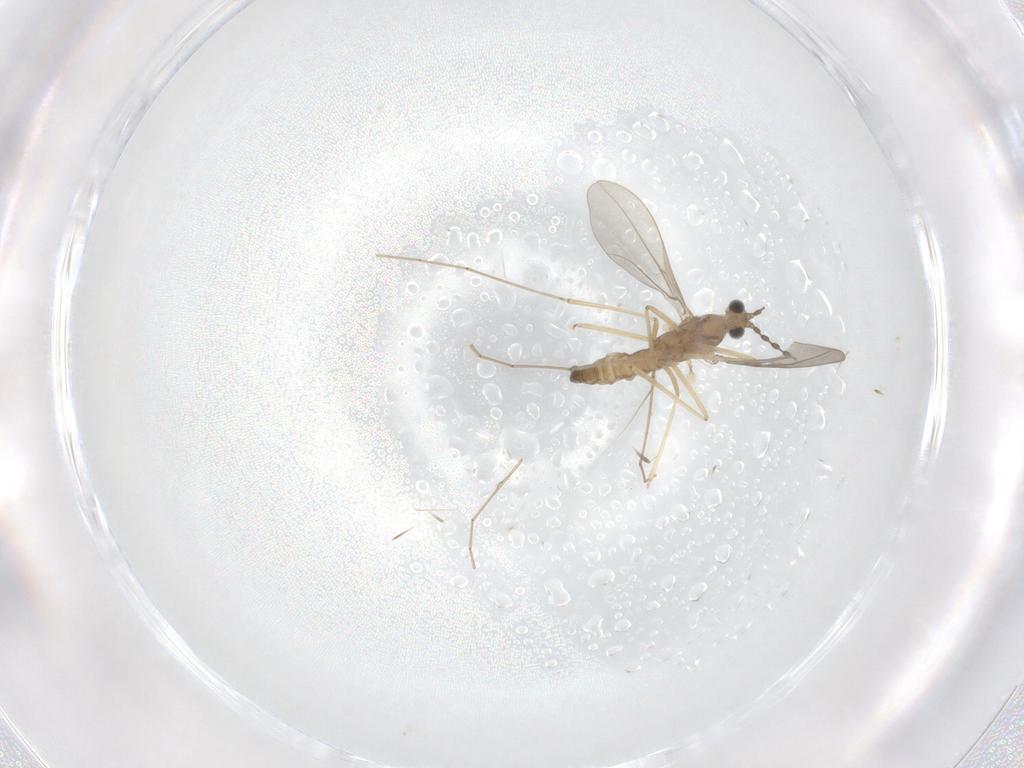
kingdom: Animalia
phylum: Arthropoda
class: Insecta
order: Diptera
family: Cecidomyiidae
